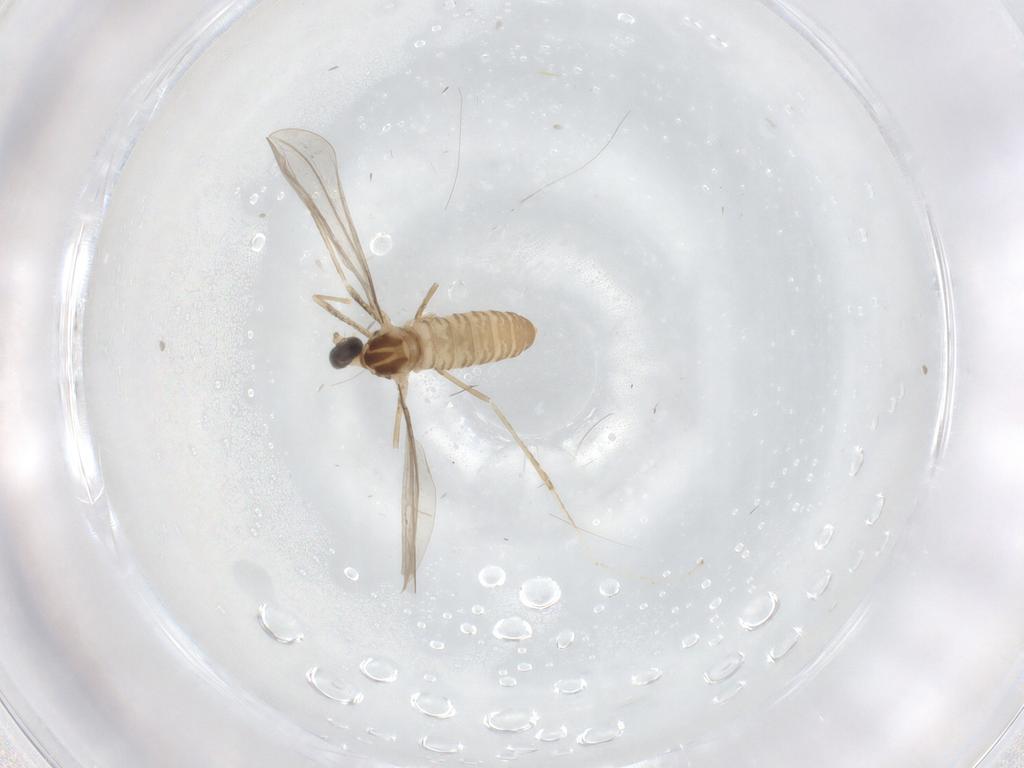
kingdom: Animalia
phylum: Arthropoda
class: Insecta
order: Diptera
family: Cecidomyiidae
